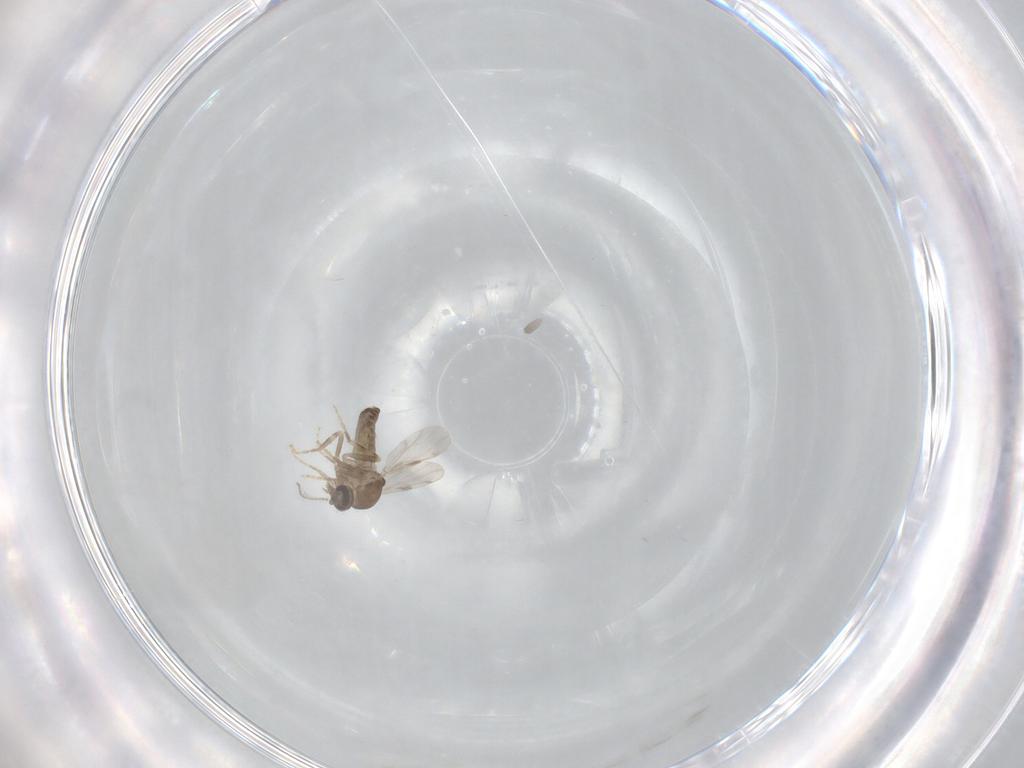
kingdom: Animalia
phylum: Arthropoda
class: Insecta
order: Diptera
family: Ceratopogonidae
